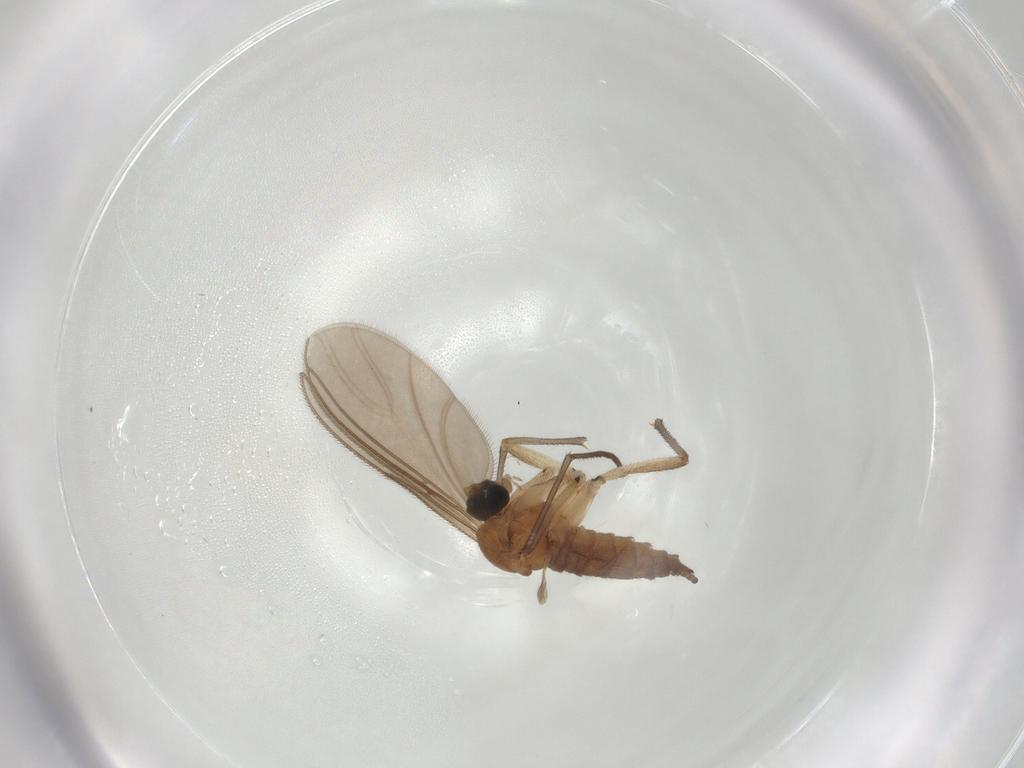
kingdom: Animalia
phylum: Arthropoda
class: Insecta
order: Diptera
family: Sciaridae
